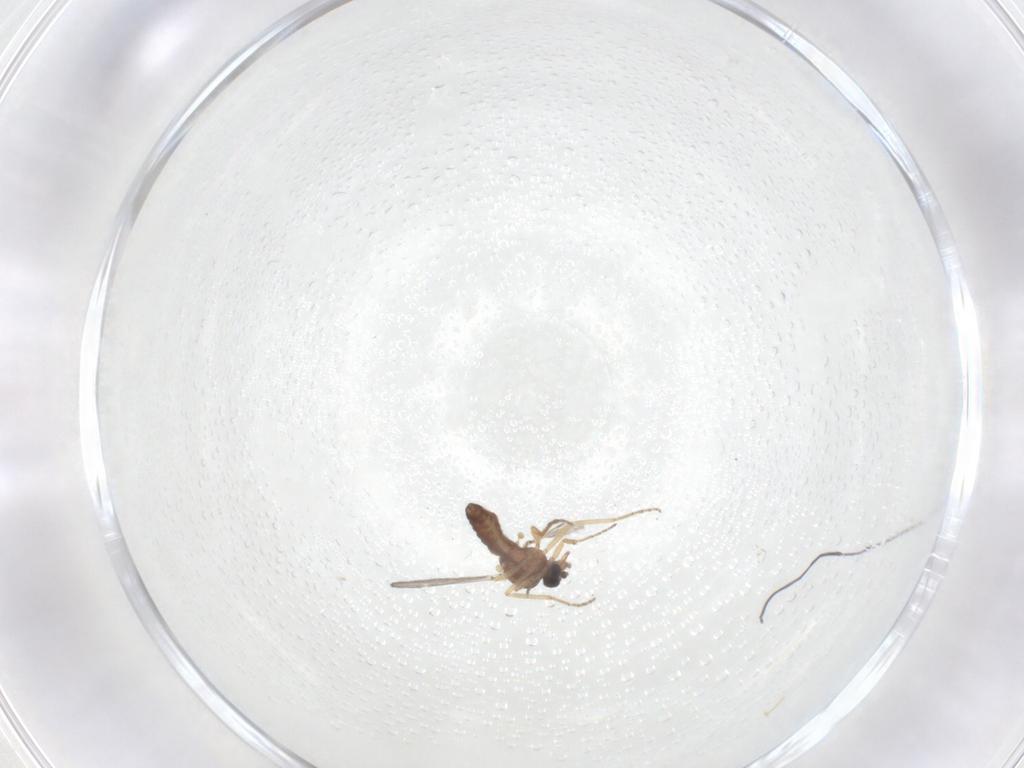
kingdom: Animalia
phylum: Arthropoda
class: Insecta
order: Diptera
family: Ceratopogonidae
